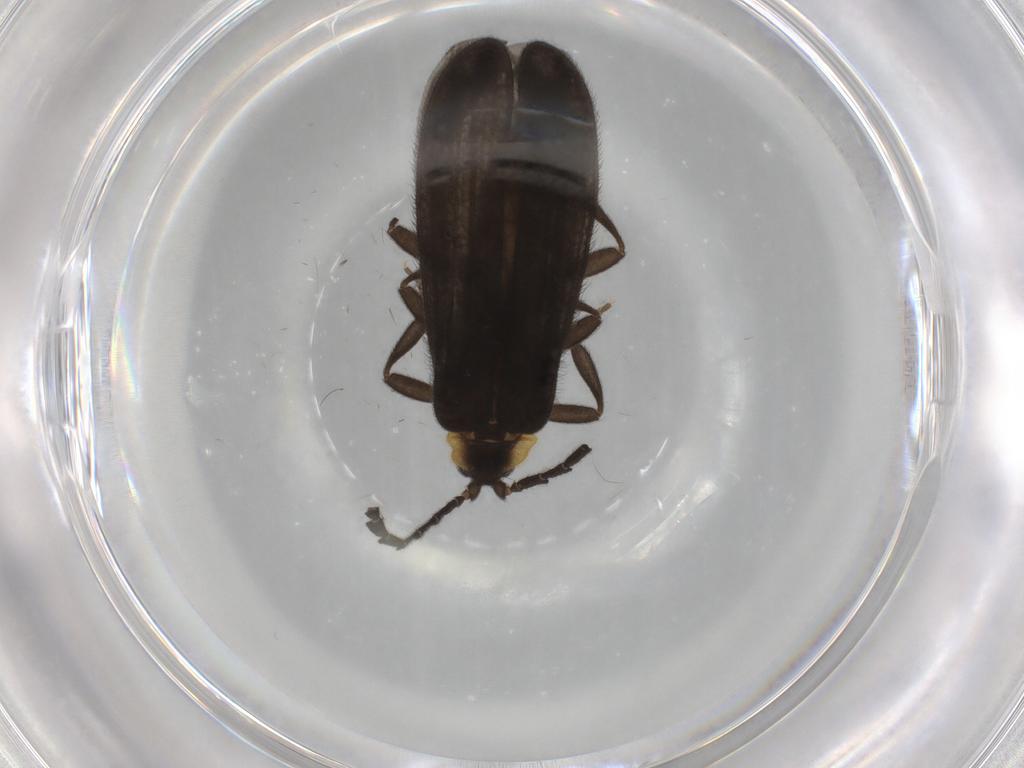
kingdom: Animalia
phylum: Arthropoda
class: Insecta
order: Coleoptera
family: Lycidae
